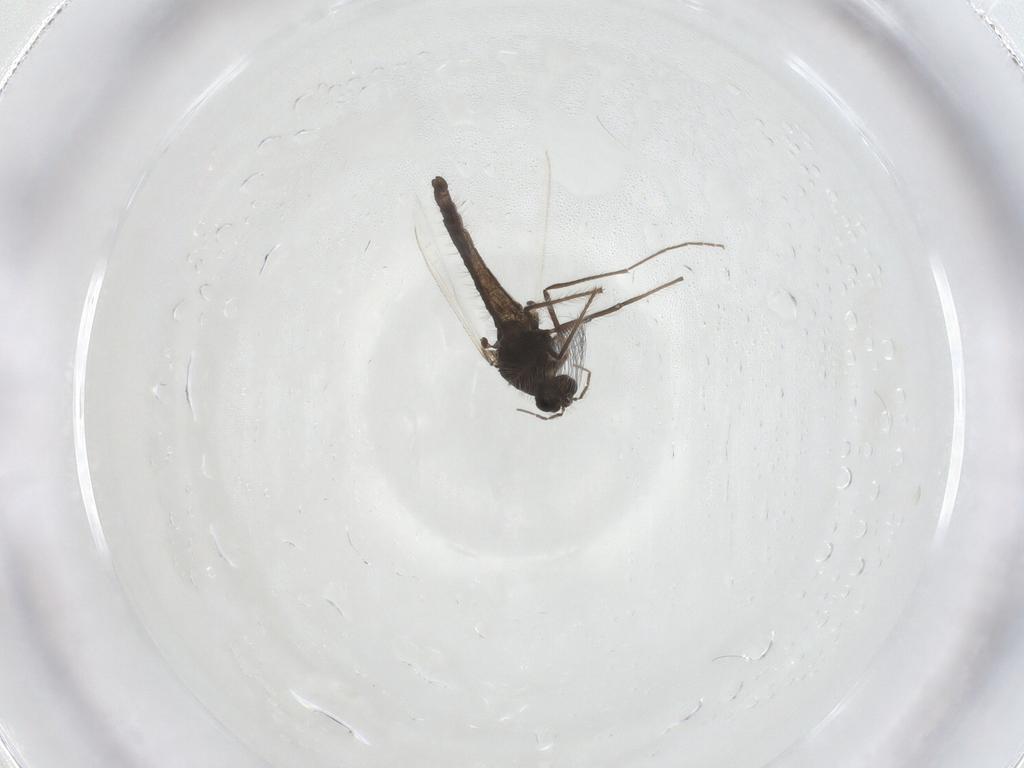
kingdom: Animalia
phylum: Arthropoda
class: Insecta
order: Diptera
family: Chironomidae
